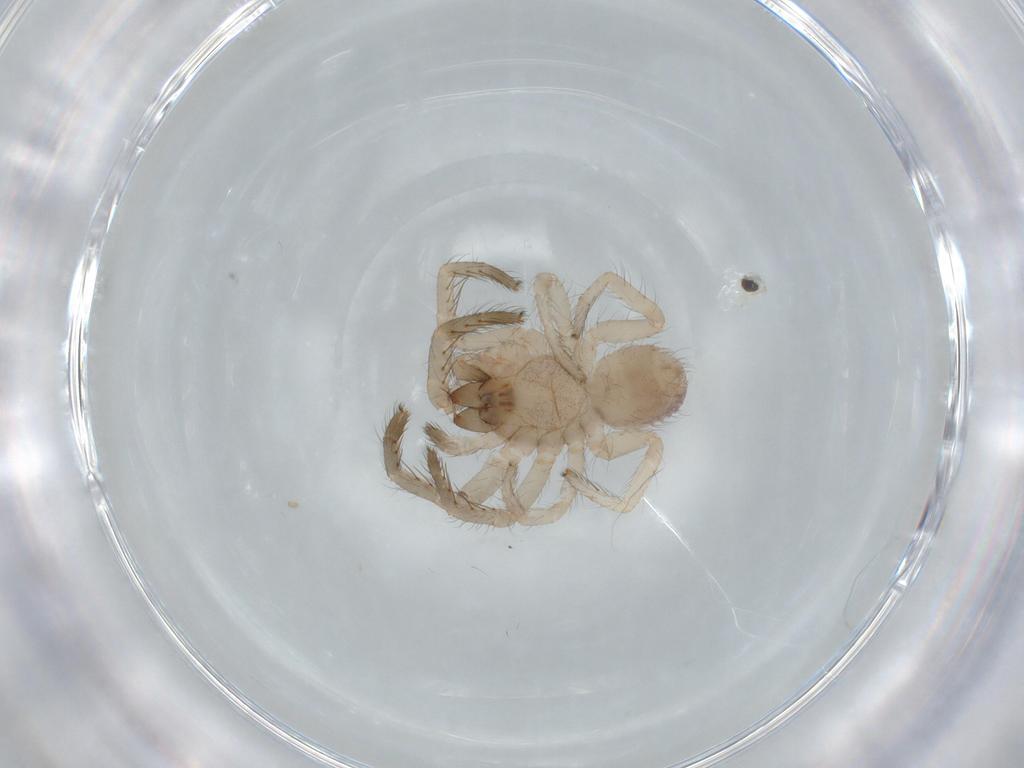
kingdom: Animalia
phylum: Arthropoda
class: Arachnida
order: Araneae
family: Segestriidae
